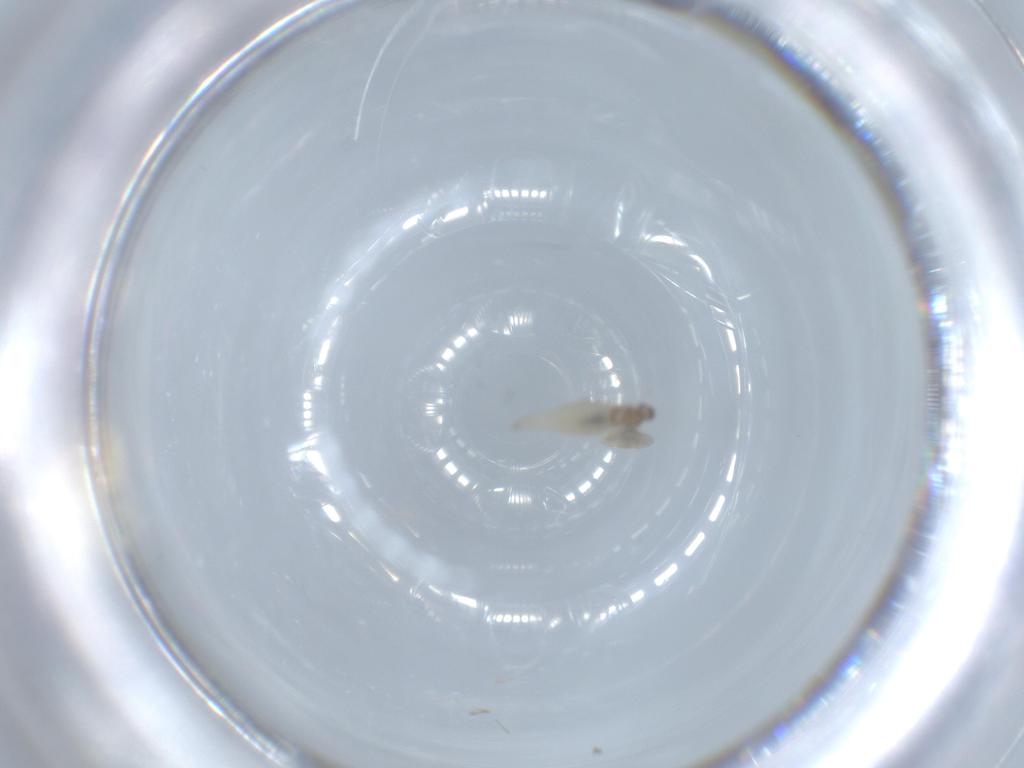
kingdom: Animalia
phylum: Arthropoda
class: Insecta
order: Diptera
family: Cecidomyiidae
